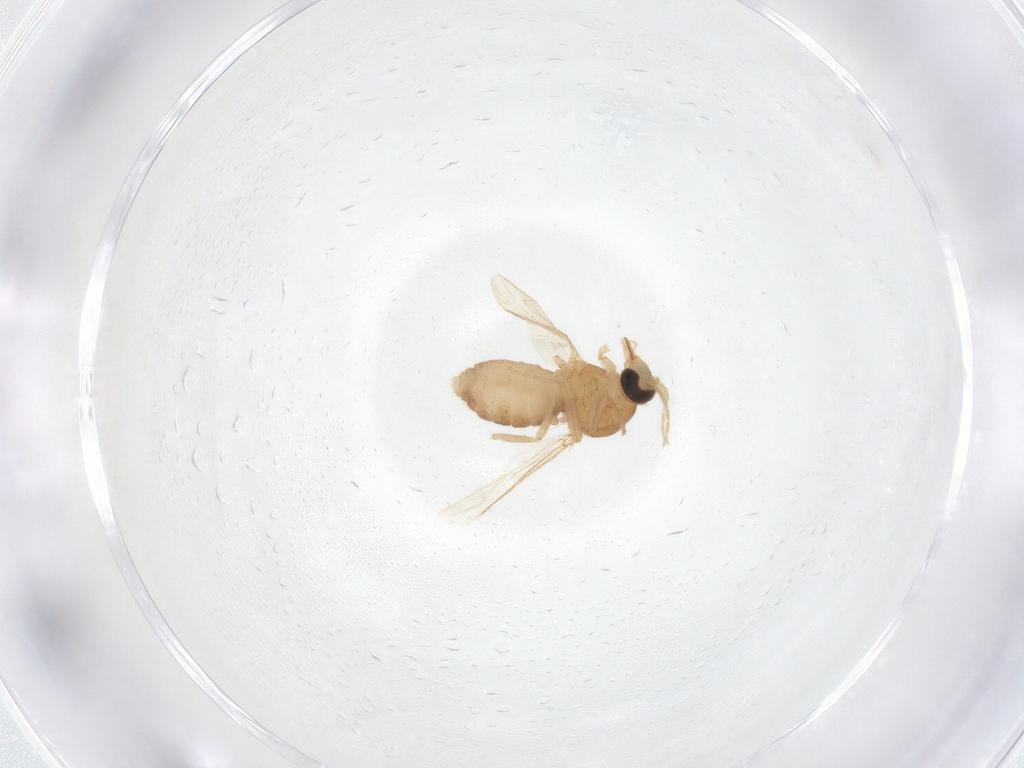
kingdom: Animalia
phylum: Arthropoda
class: Insecta
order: Diptera
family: Ceratopogonidae
